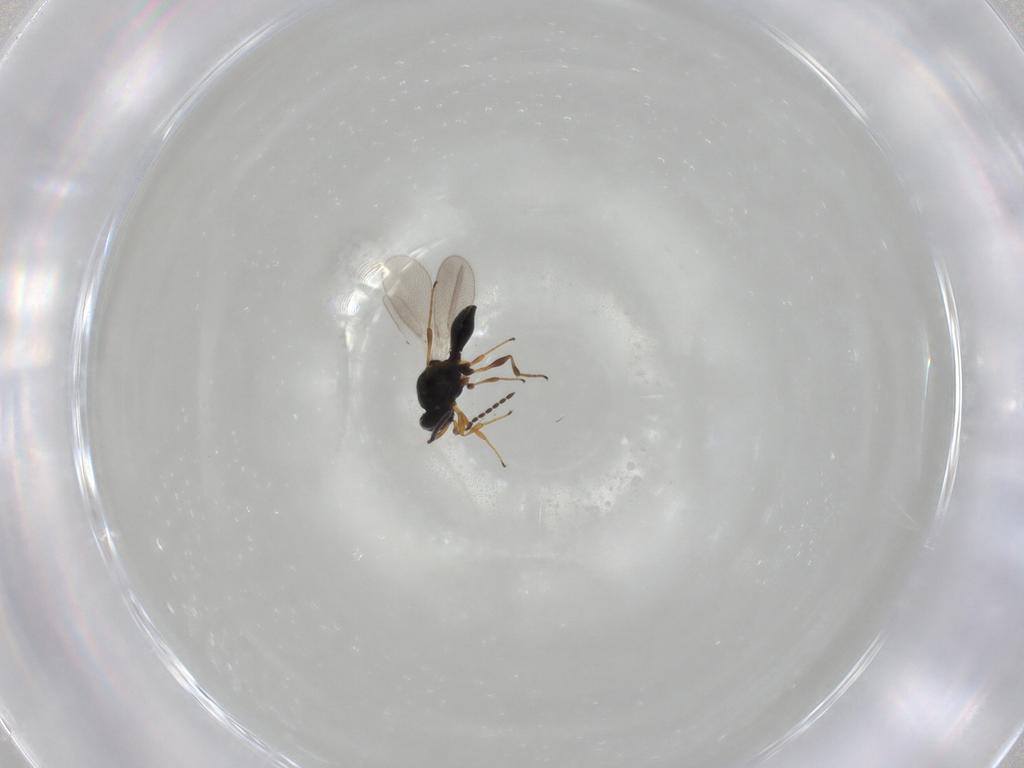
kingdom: Animalia
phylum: Arthropoda
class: Insecta
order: Hymenoptera
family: Platygastridae
